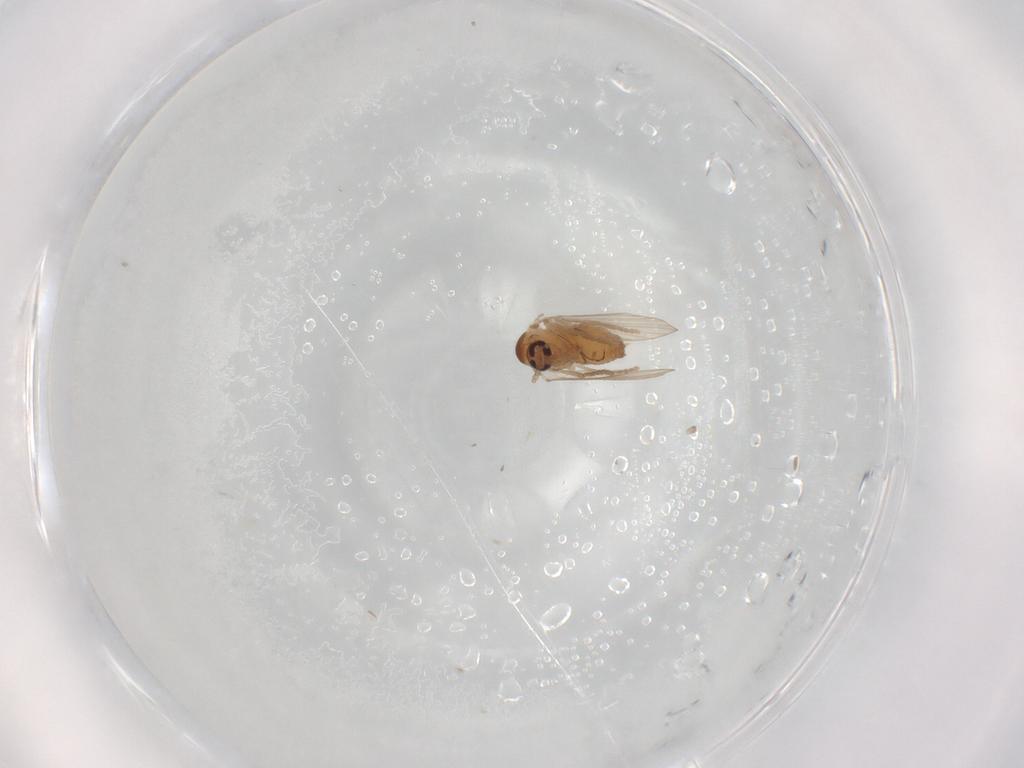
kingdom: Animalia
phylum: Arthropoda
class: Insecta
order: Diptera
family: Psychodidae
